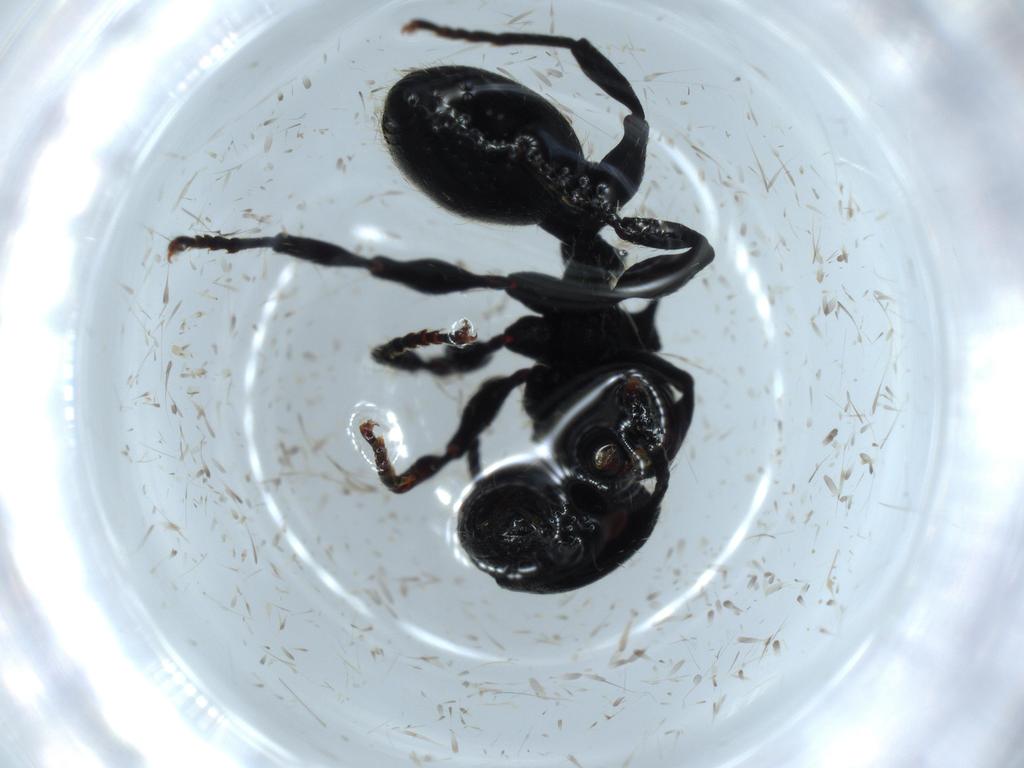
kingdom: Animalia
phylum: Arthropoda
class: Insecta
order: Hymenoptera
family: Formicidae
